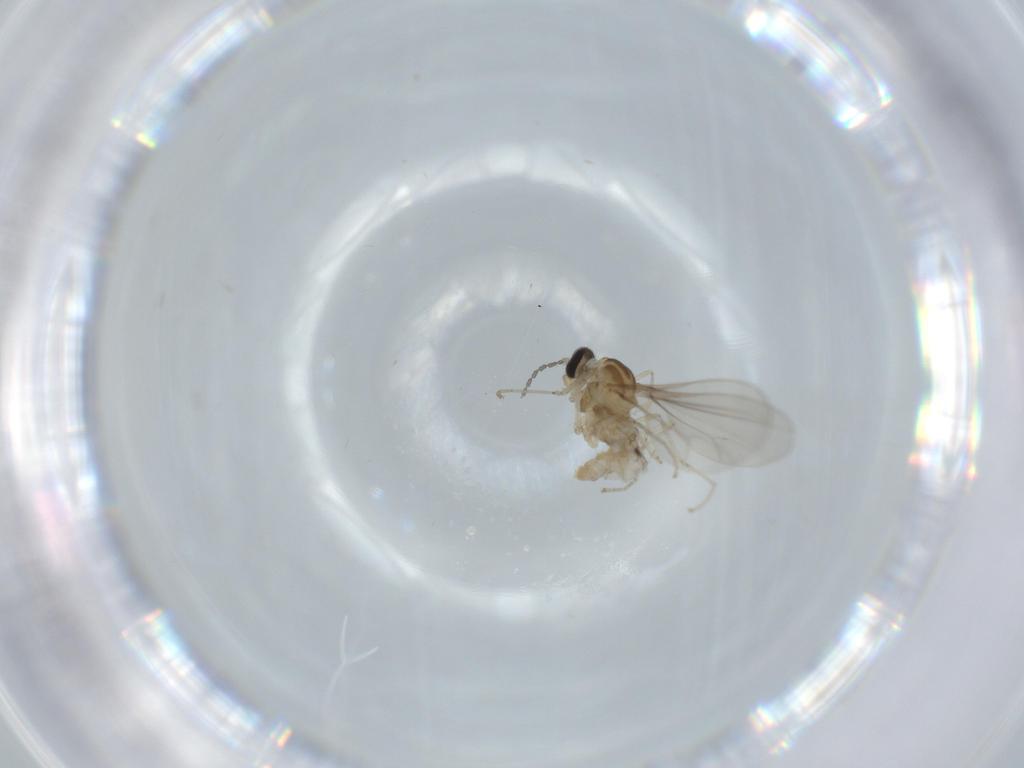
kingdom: Animalia
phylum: Arthropoda
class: Insecta
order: Diptera
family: Cecidomyiidae
